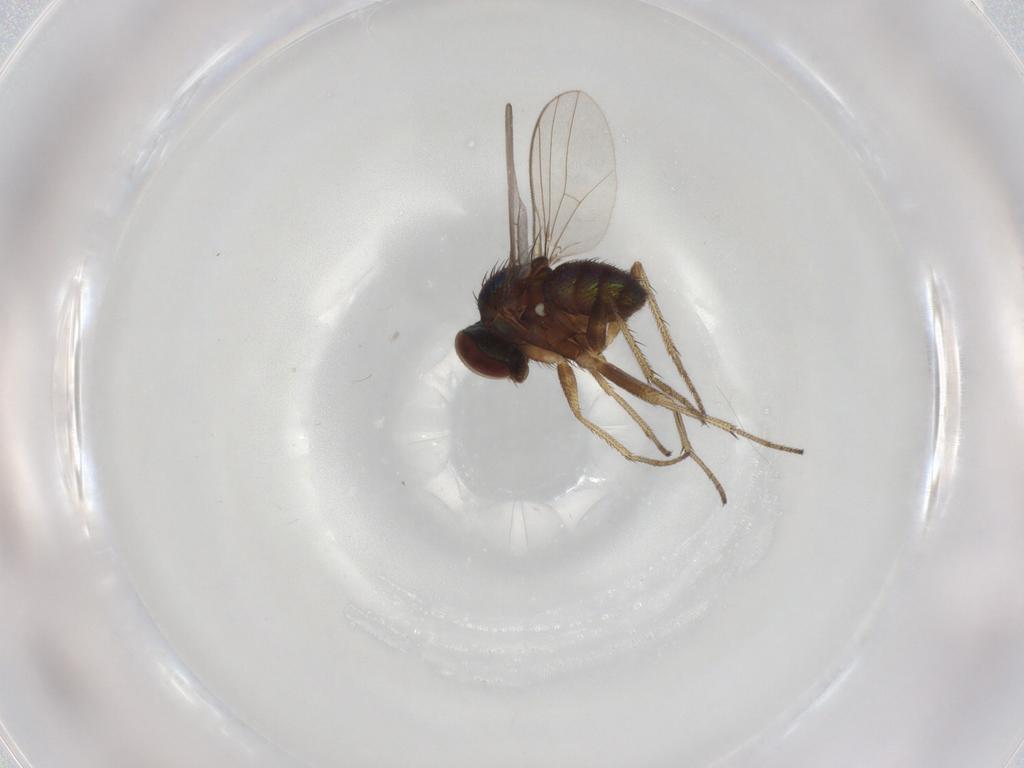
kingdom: Animalia
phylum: Arthropoda
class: Insecta
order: Diptera
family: Dolichopodidae
